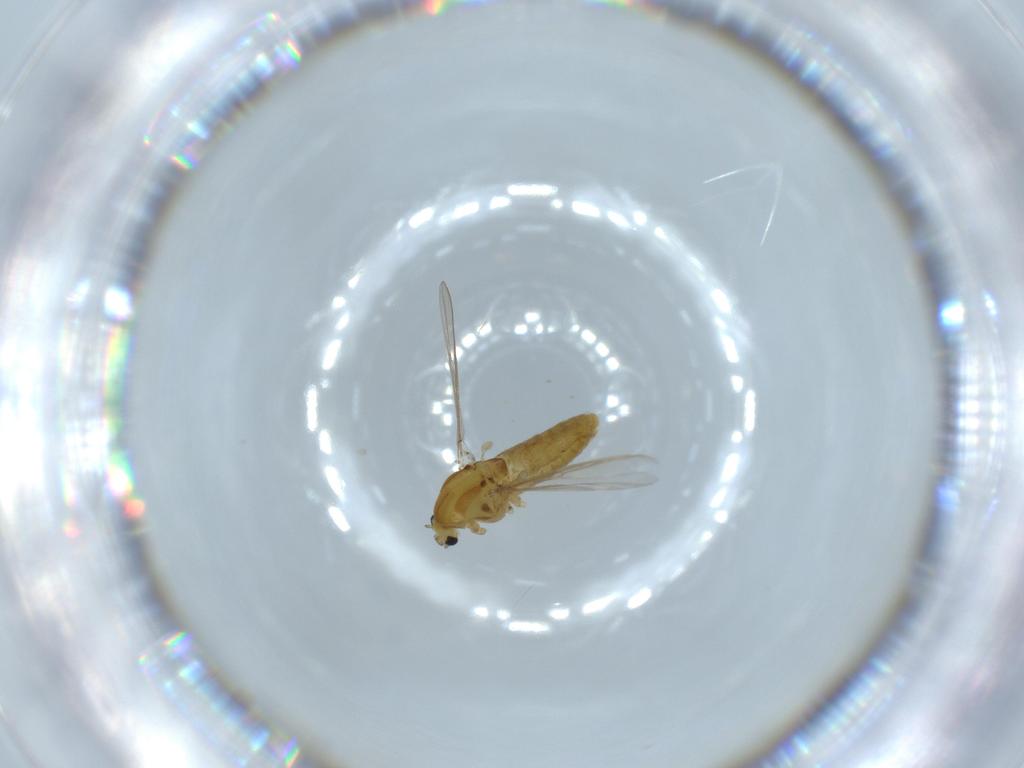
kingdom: Animalia
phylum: Arthropoda
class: Insecta
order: Diptera
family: Chironomidae
